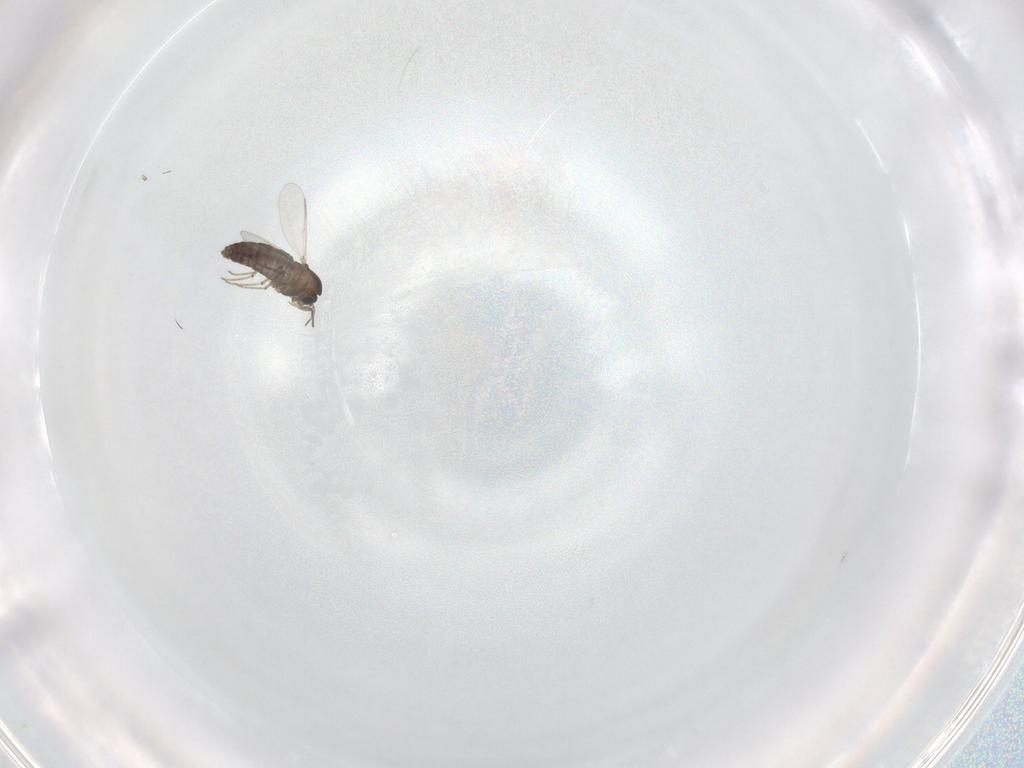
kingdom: Animalia
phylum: Arthropoda
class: Insecta
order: Diptera
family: Chironomidae
